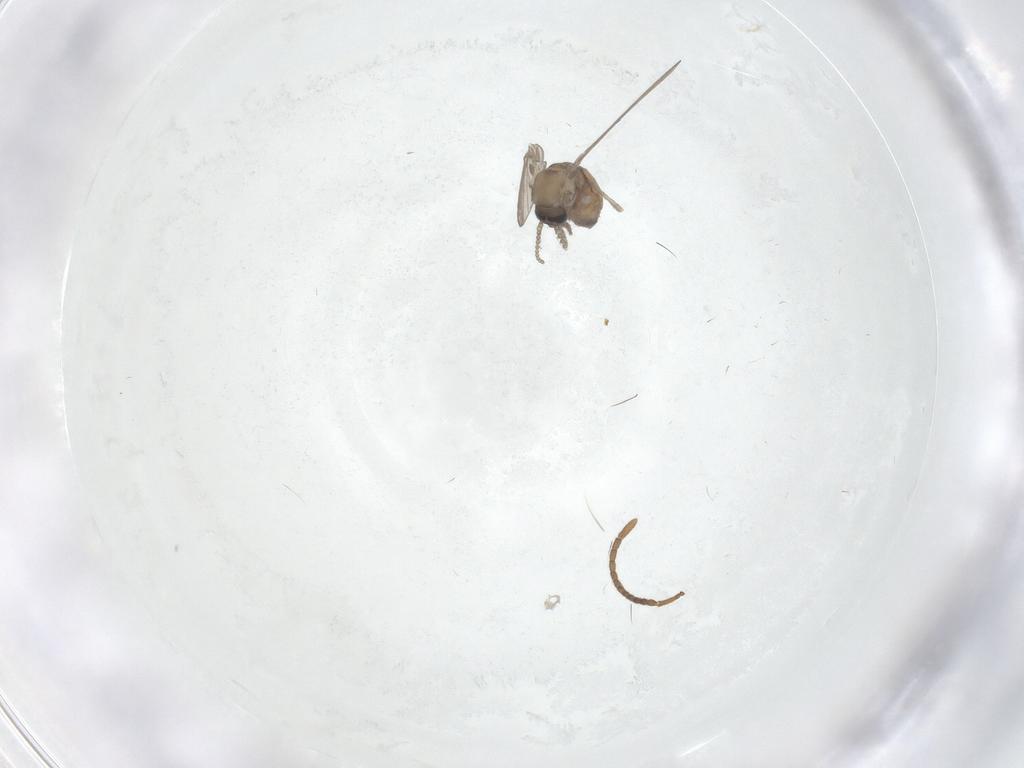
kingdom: Animalia
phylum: Arthropoda
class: Insecta
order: Diptera
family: Psychodidae
